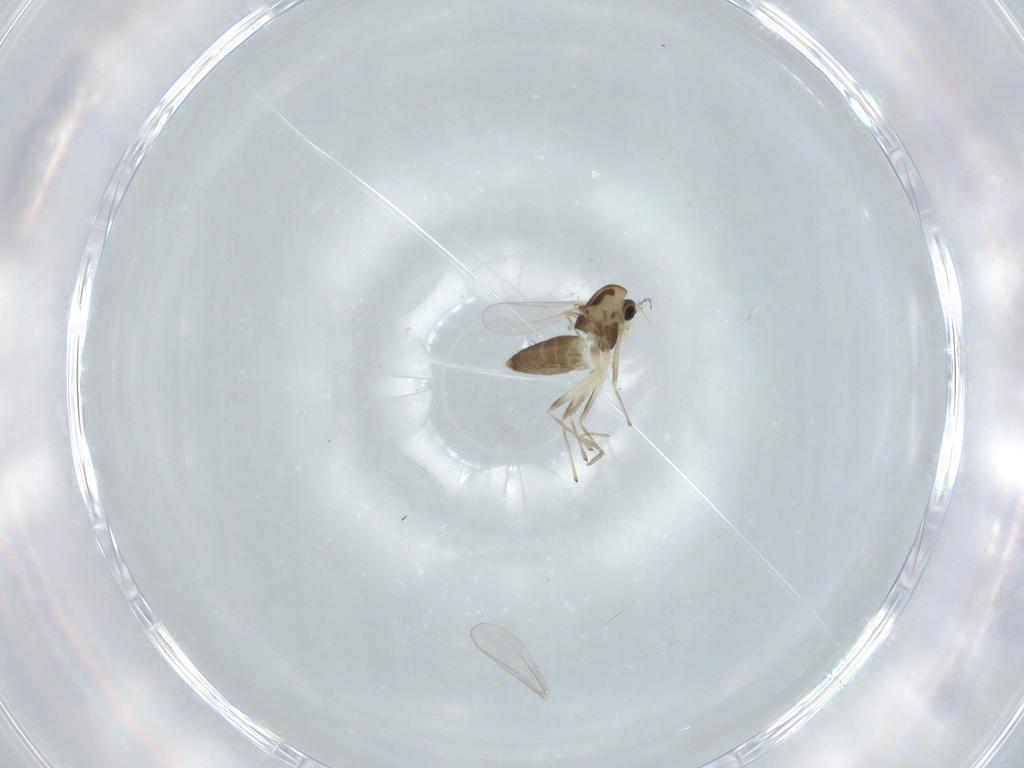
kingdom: Animalia
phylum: Arthropoda
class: Insecta
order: Diptera
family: Chironomidae
